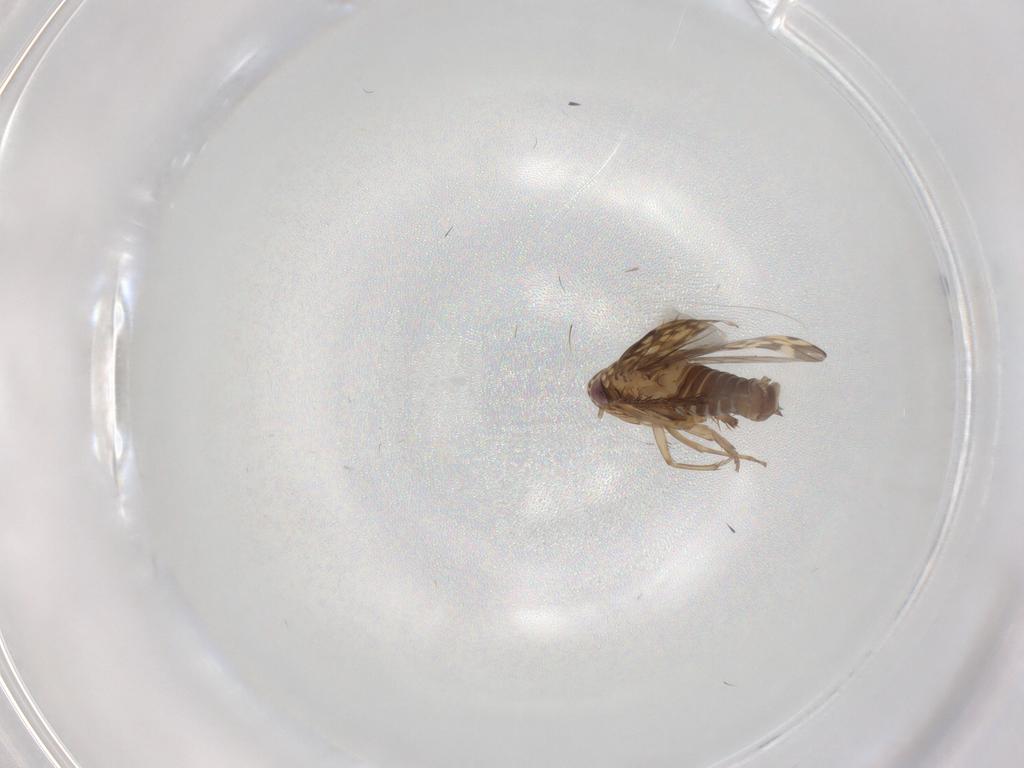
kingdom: Animalia
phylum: Arthropoda
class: Insecta
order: Hemiptera
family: Cicadellidae
